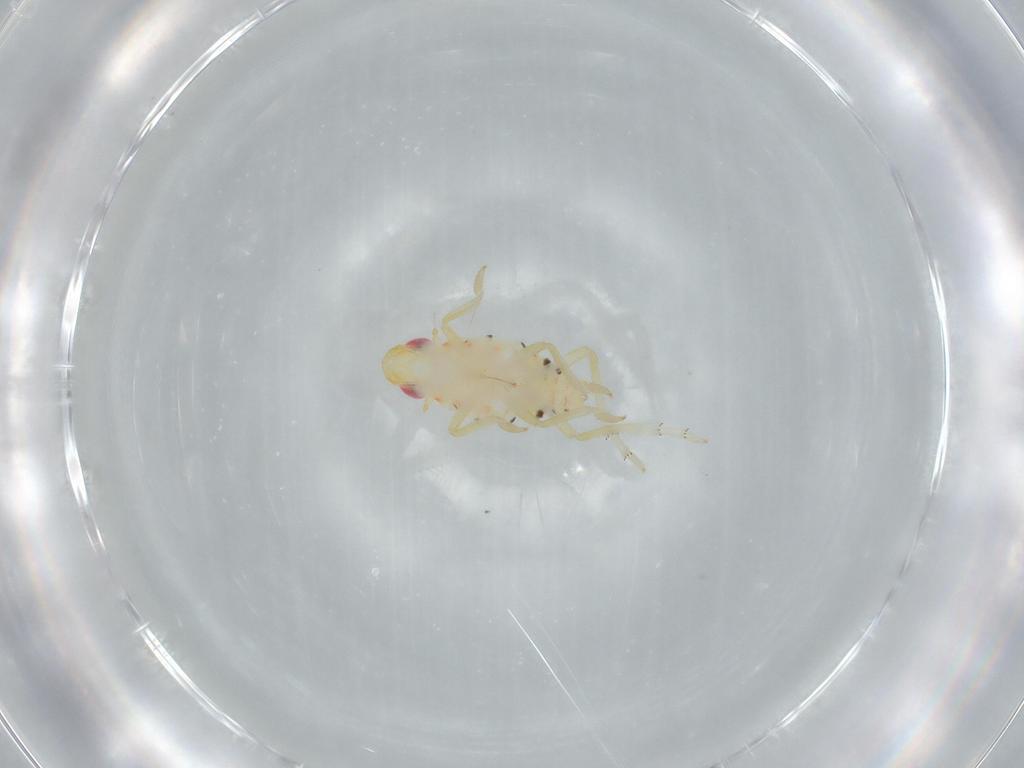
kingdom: Animalia
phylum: Arthropoda
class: Insecta
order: Hemiptera
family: Tropiduchidae
